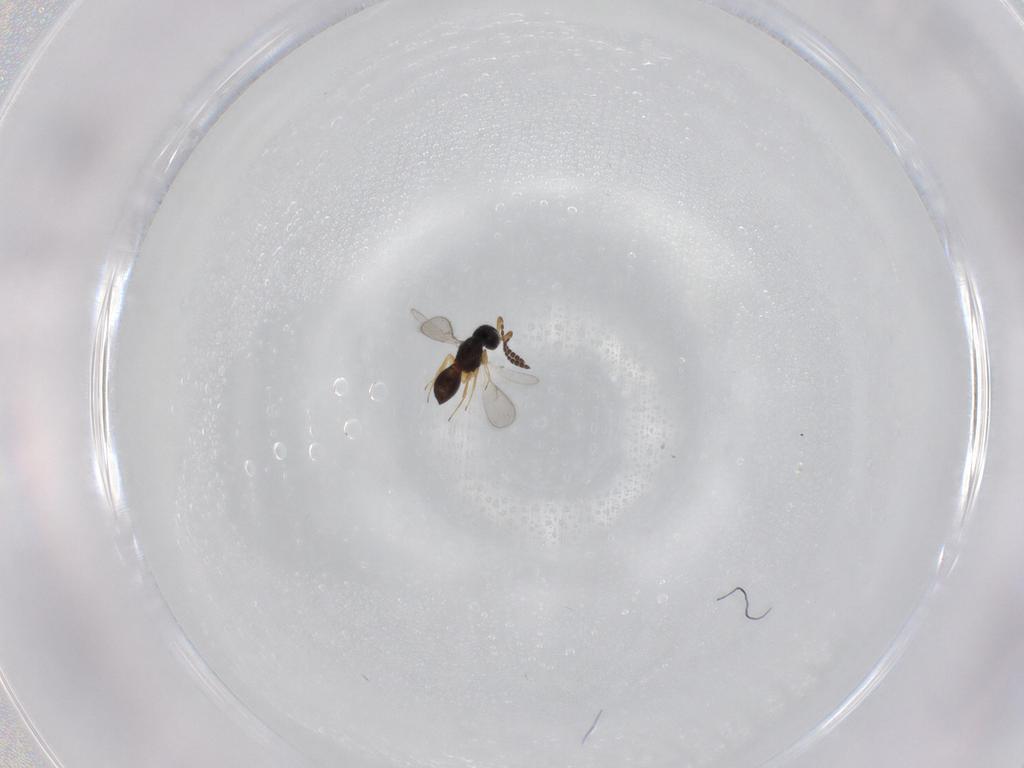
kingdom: Animalia
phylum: Arthropoda
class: Insecta
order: Hymenoptera
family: Scelionidae
